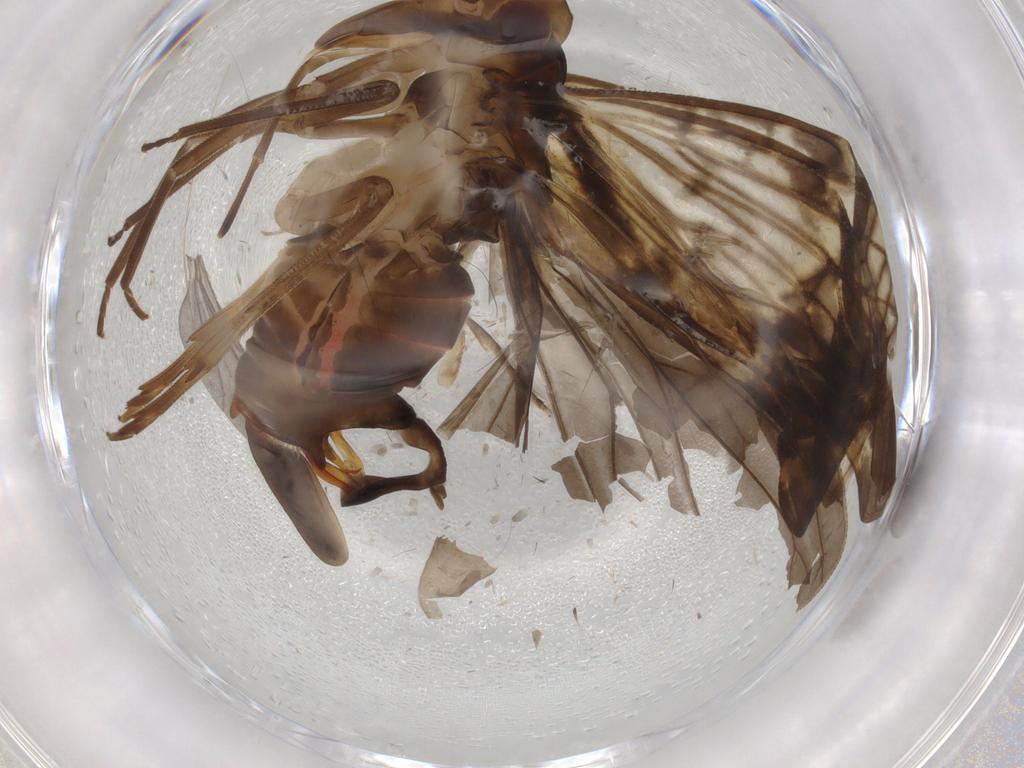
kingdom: Animalia
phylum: Arthropoda
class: Insecta
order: Hemiptera
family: Cixiidae
